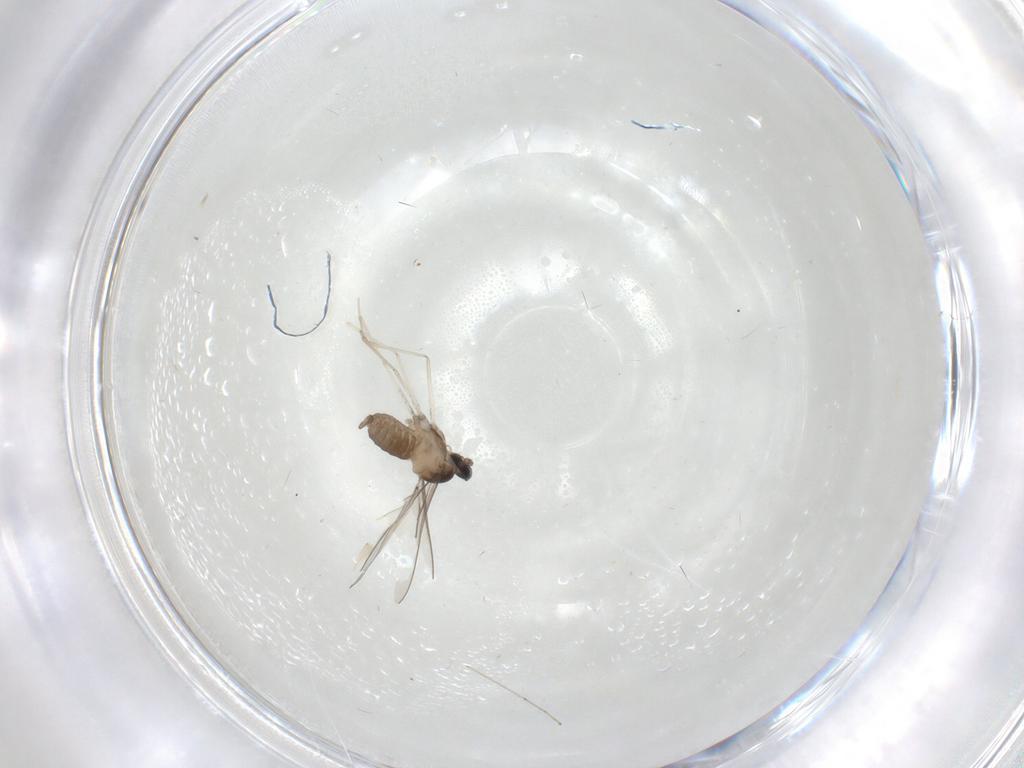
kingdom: Animalia
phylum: Arthropoda
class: Insecta
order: Diptera
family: Cecidomyiidae
